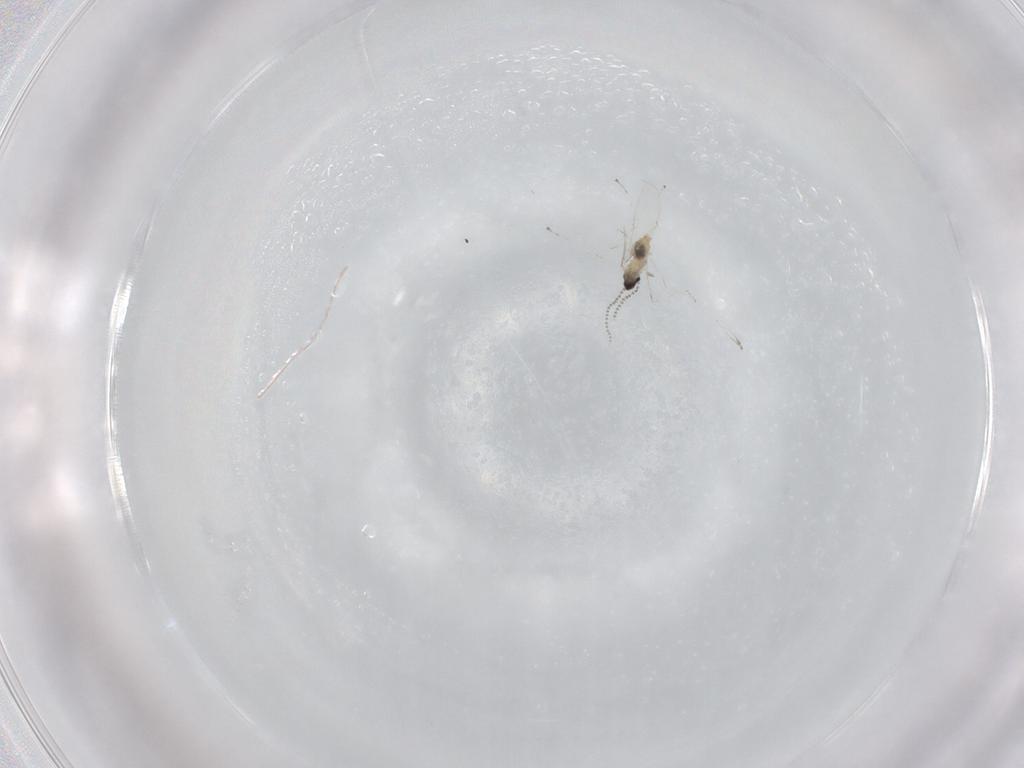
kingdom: Animalia
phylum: Arthropoda
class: Insecta
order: Diptera
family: Cecidomyiidae
